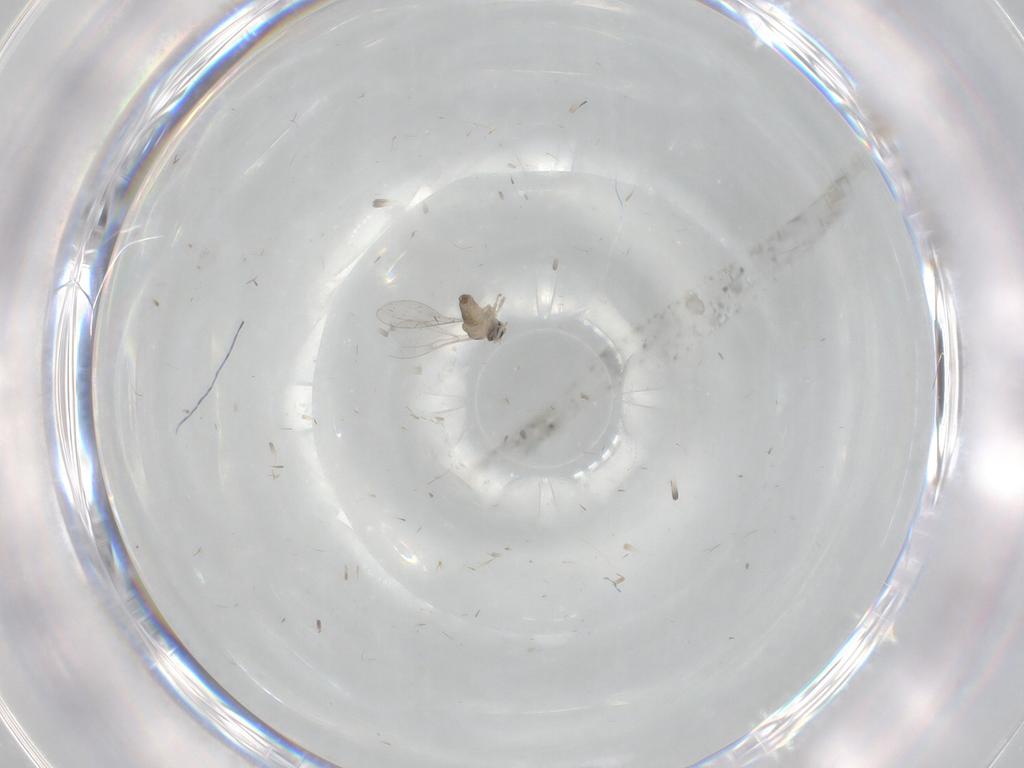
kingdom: Animalia
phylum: Arthropoda
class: Insecta
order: Diptera
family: Cecidomyiidae
